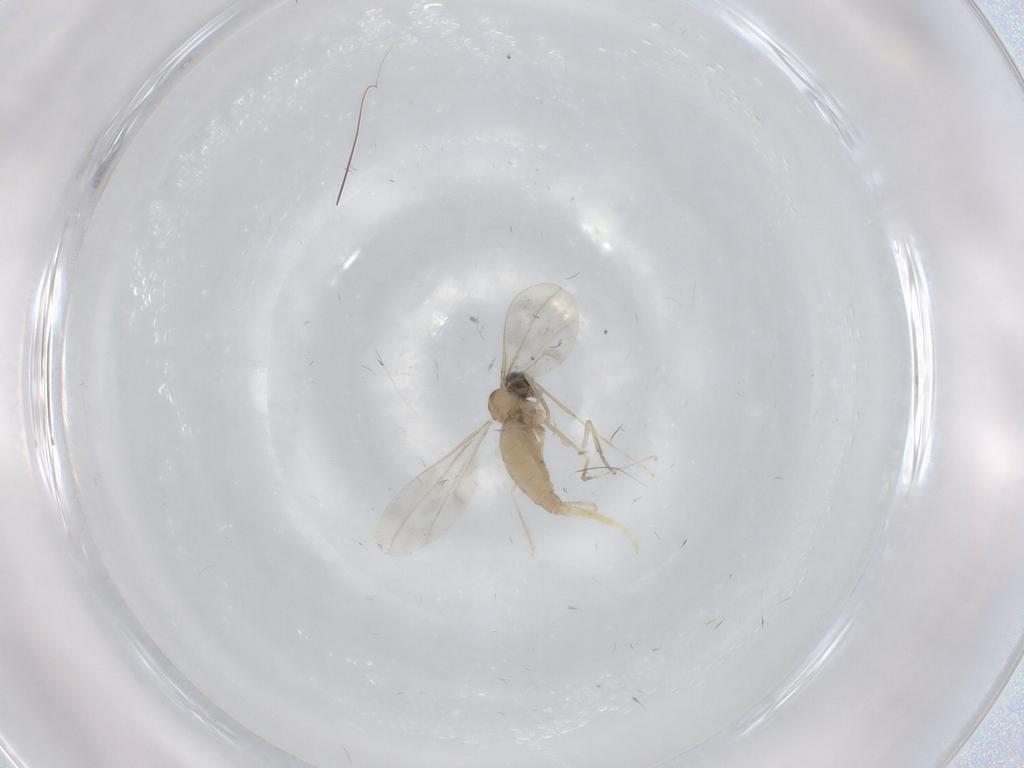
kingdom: Animalia
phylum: Arthropoda
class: Insecta
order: Diptera
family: Cecidomyiidae
